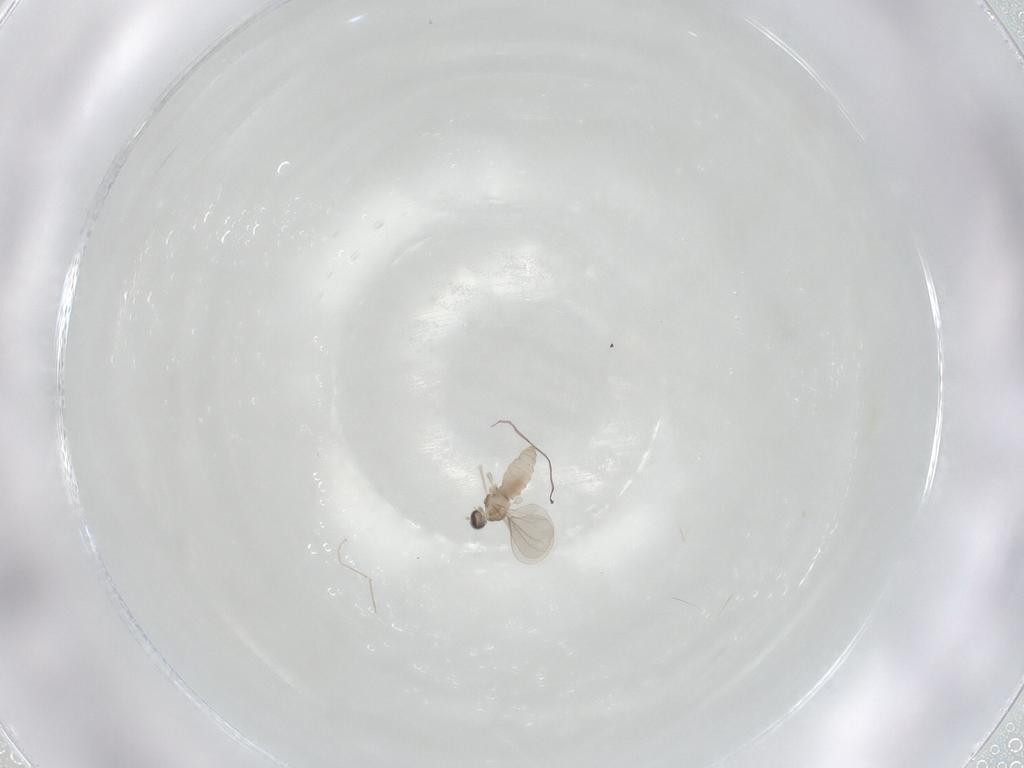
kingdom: Animalia
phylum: Arthropoda
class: Insecta
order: Diptera
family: Cecidomyiidae
